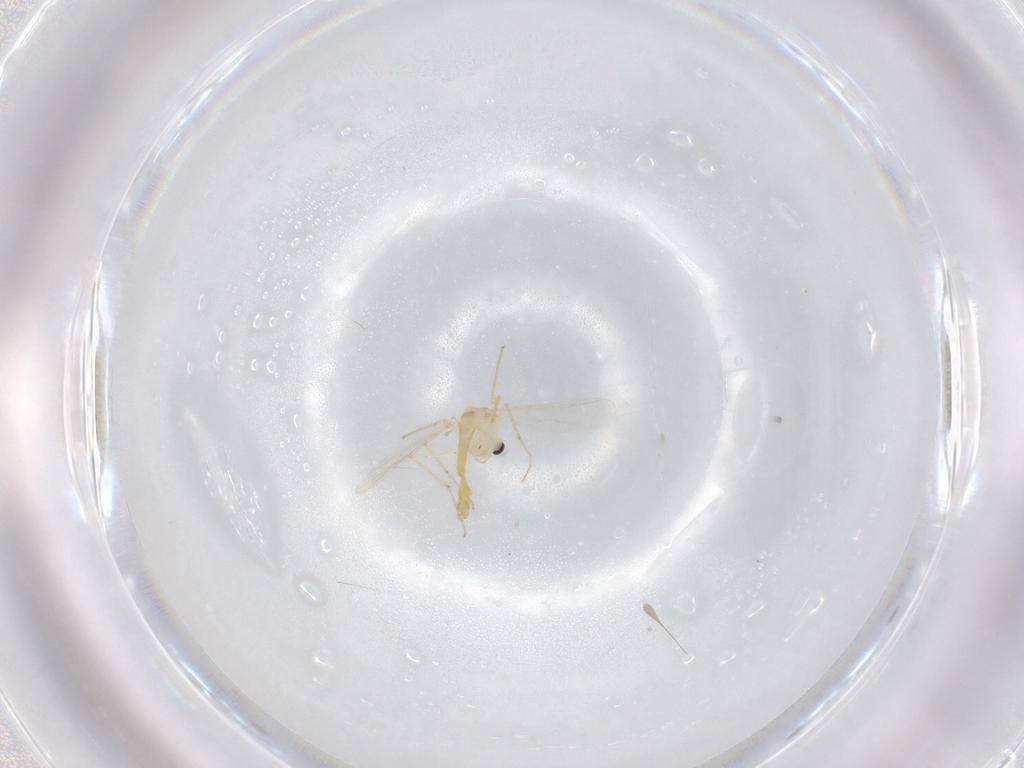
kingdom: Animalia
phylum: Arthropoda
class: Insecta
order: Diptera
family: Chironomidae
